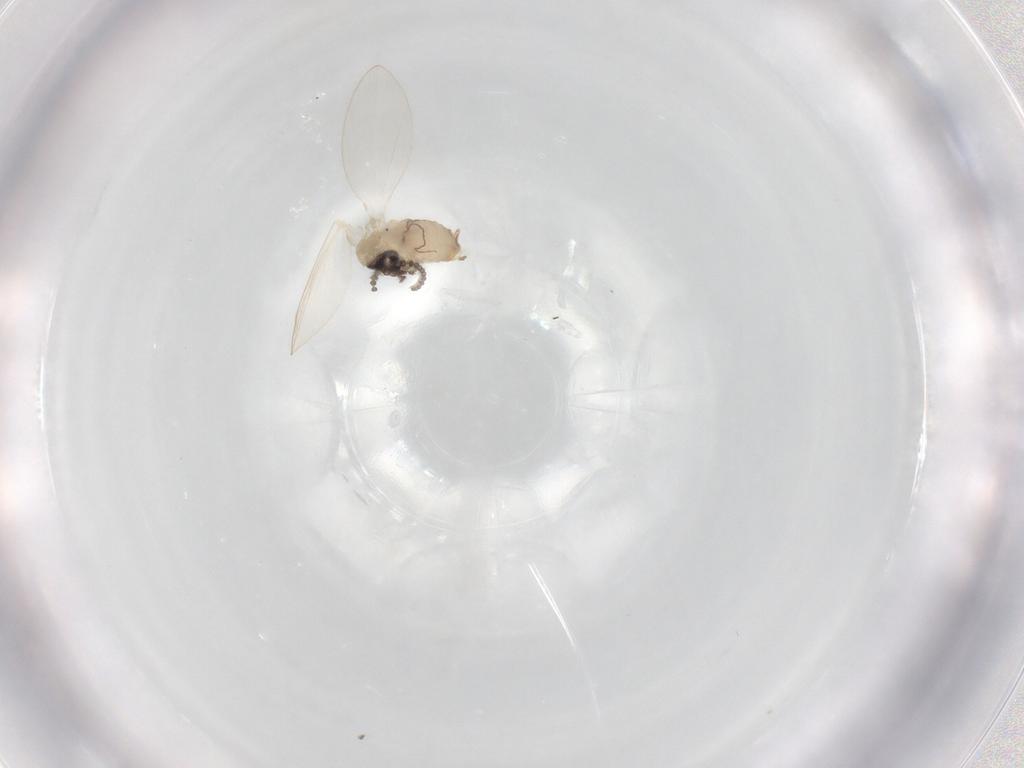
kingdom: Animalia
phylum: Arthropoda
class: Insecta
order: Diptera
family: Psychodidae
